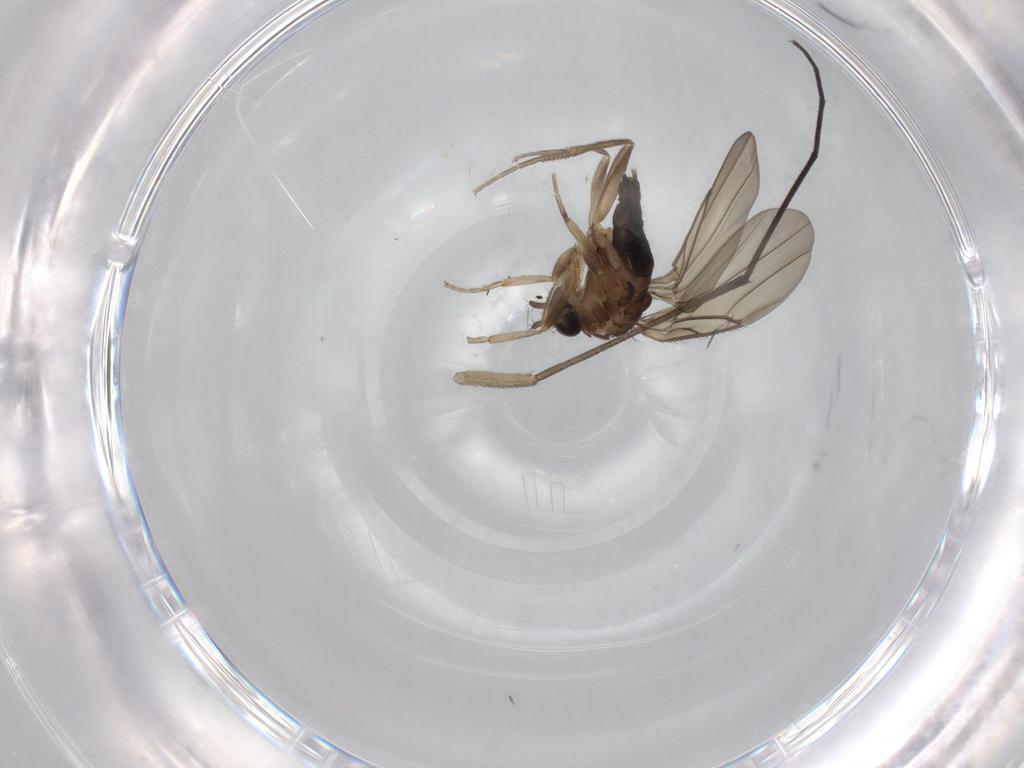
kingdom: Animalia
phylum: Arthropoda
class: Insecta
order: Diptera
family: Phoridae
